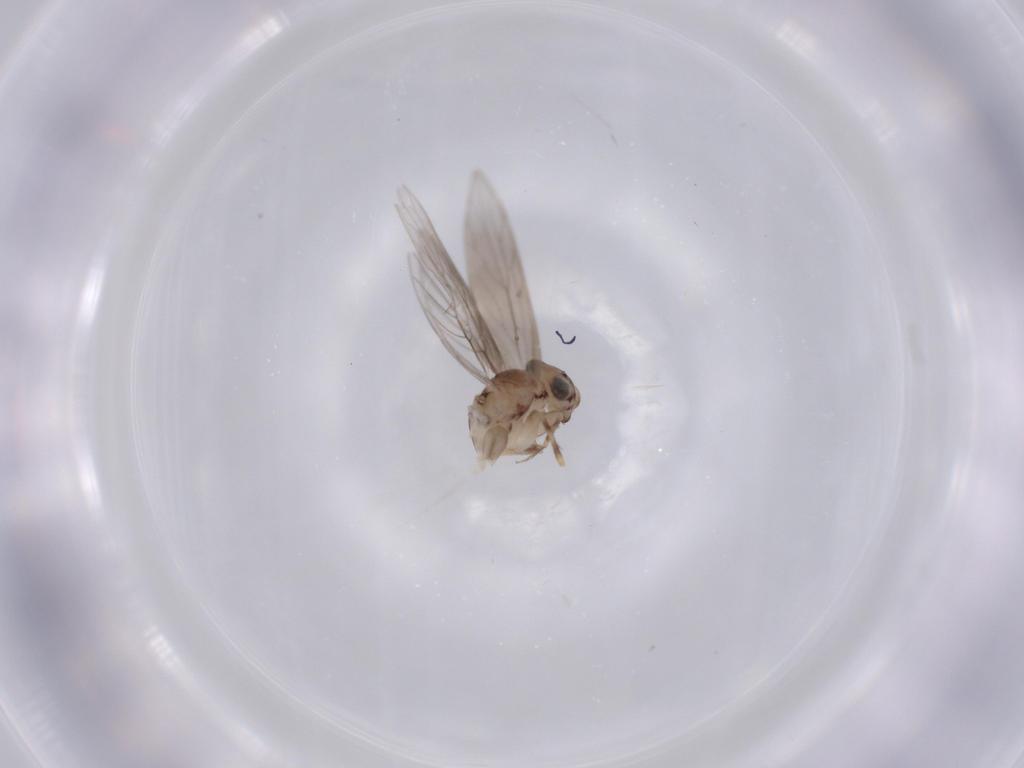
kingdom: Animalia
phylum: Arthropoda
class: Insecta
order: Psocodea
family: Lepidopsocidae
